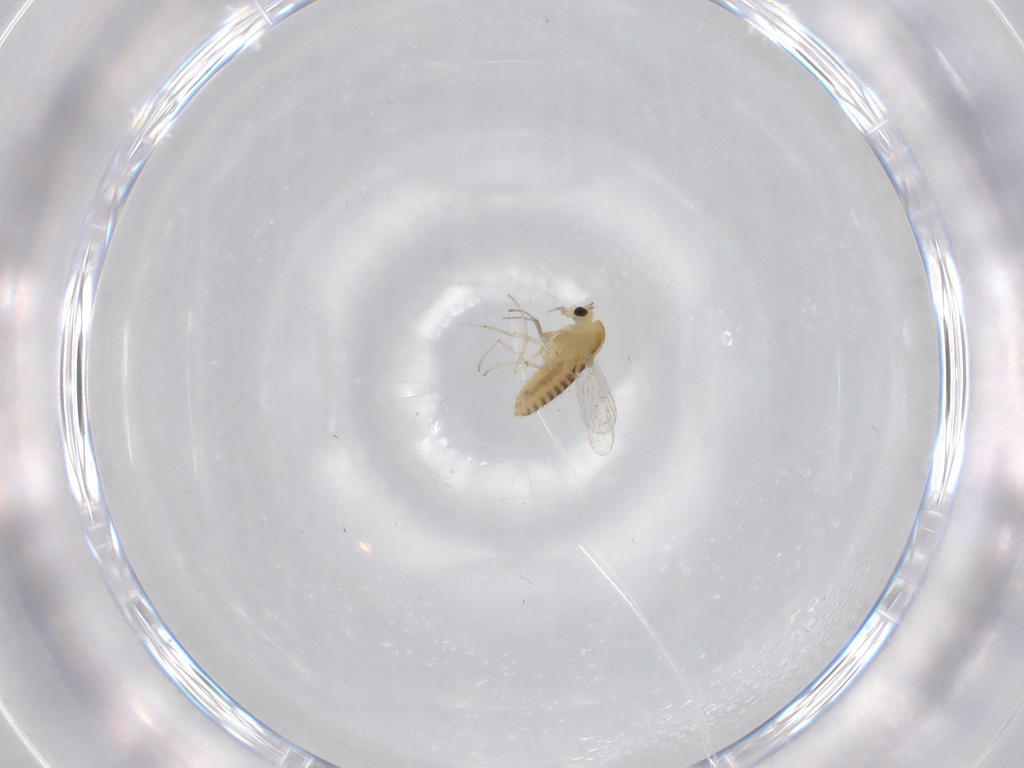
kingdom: Animalia
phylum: Arthropoda
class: Insecta
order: Diptera
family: Chironomidae
